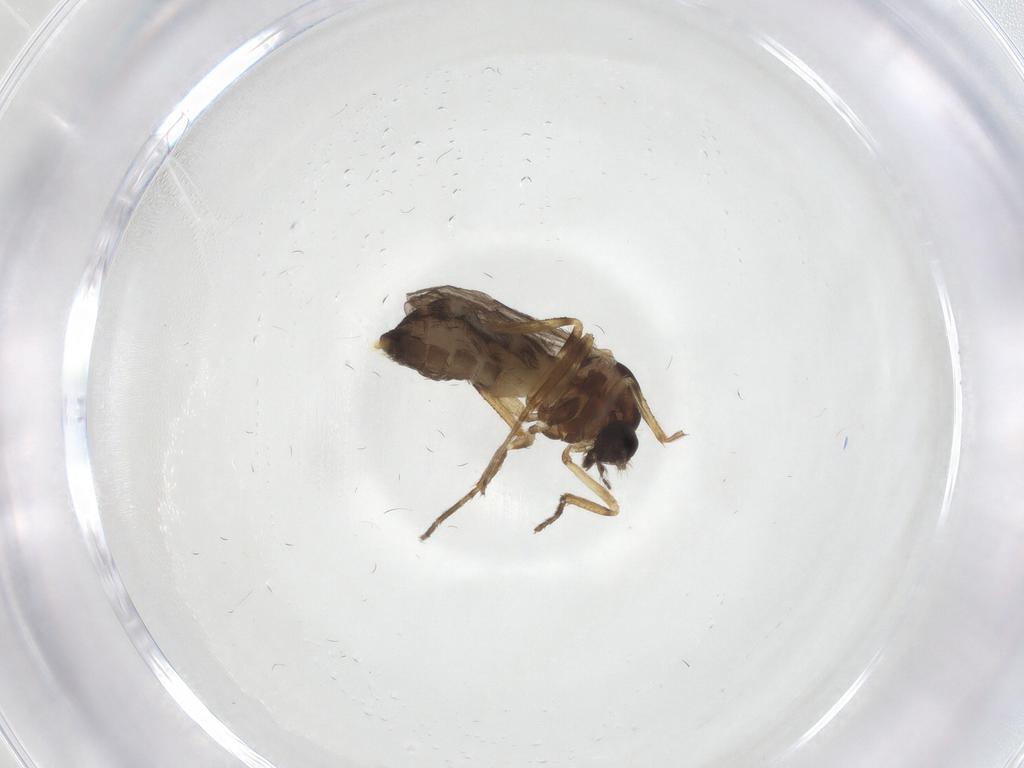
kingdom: Animalia
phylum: Arthropoda
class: Insecta
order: Diptera
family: Ceratopogonidae
